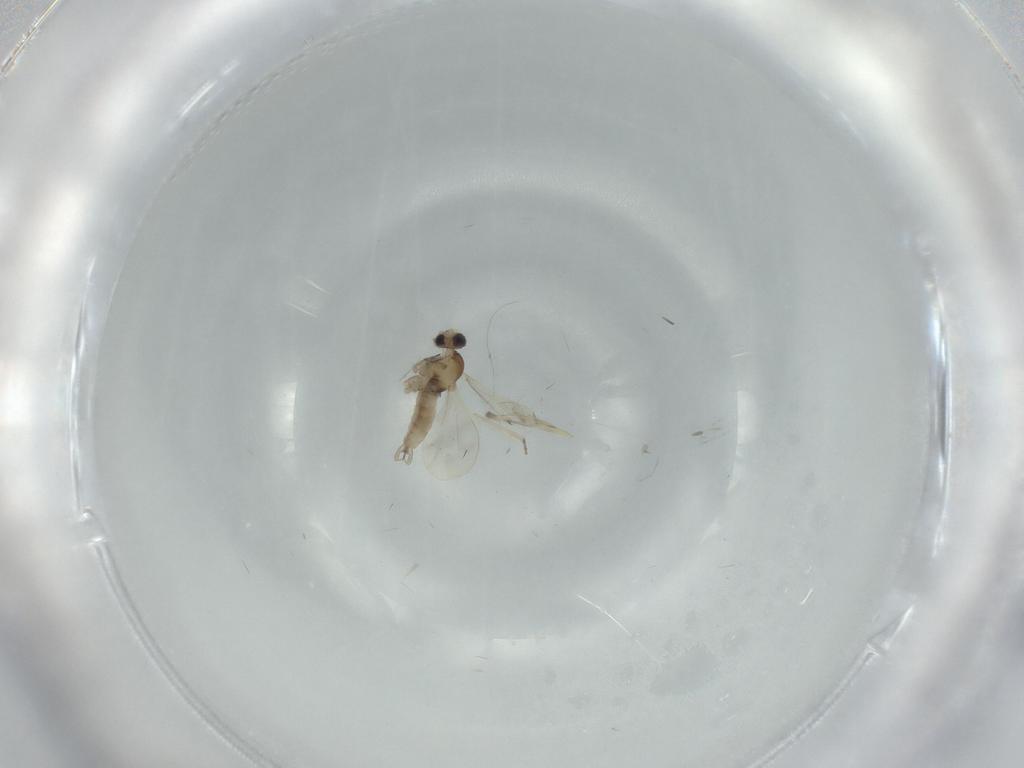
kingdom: Animalia
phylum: Arthropoda
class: Insecta
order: Diptera
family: Cecidomyiidae
